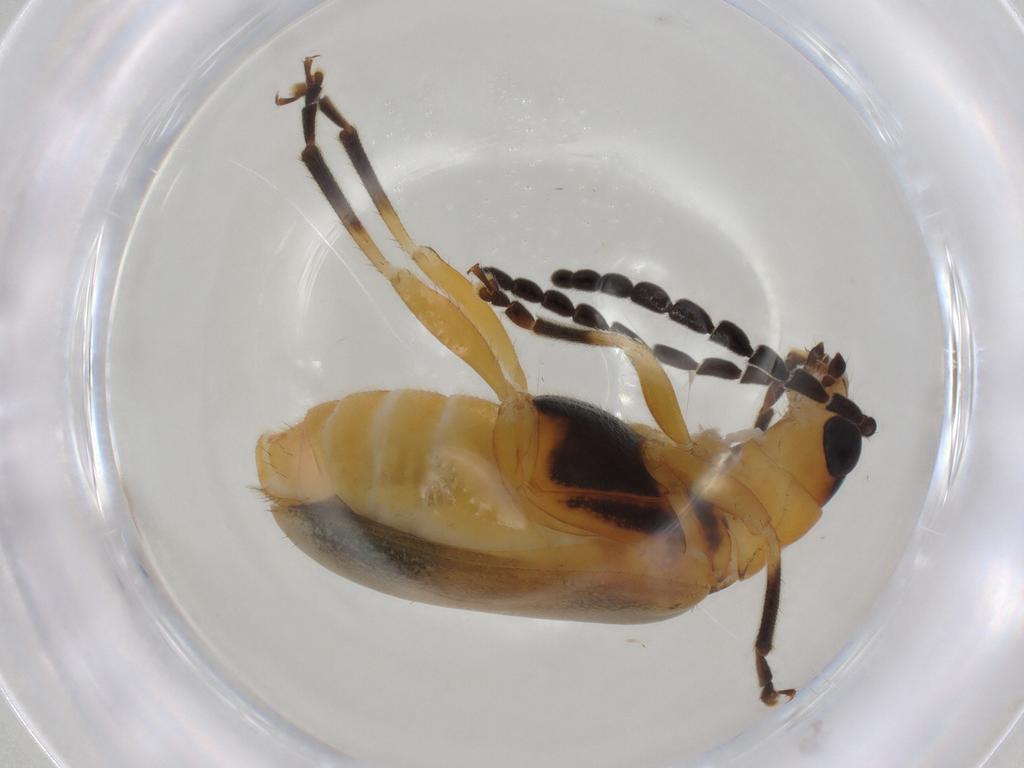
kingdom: Animalia
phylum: Arthropoda
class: Insecta
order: Coleoptera
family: Chrysomelidae
